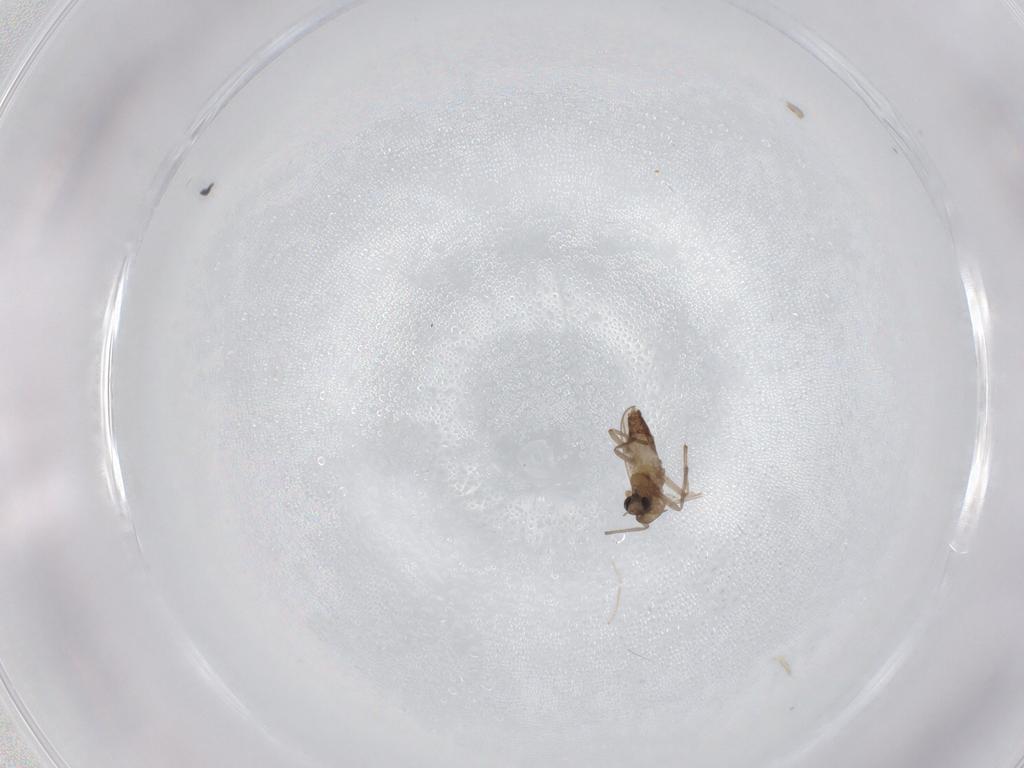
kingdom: Animalia
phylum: Arthropoda
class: Insecta
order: Diptera
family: Chironomidae
